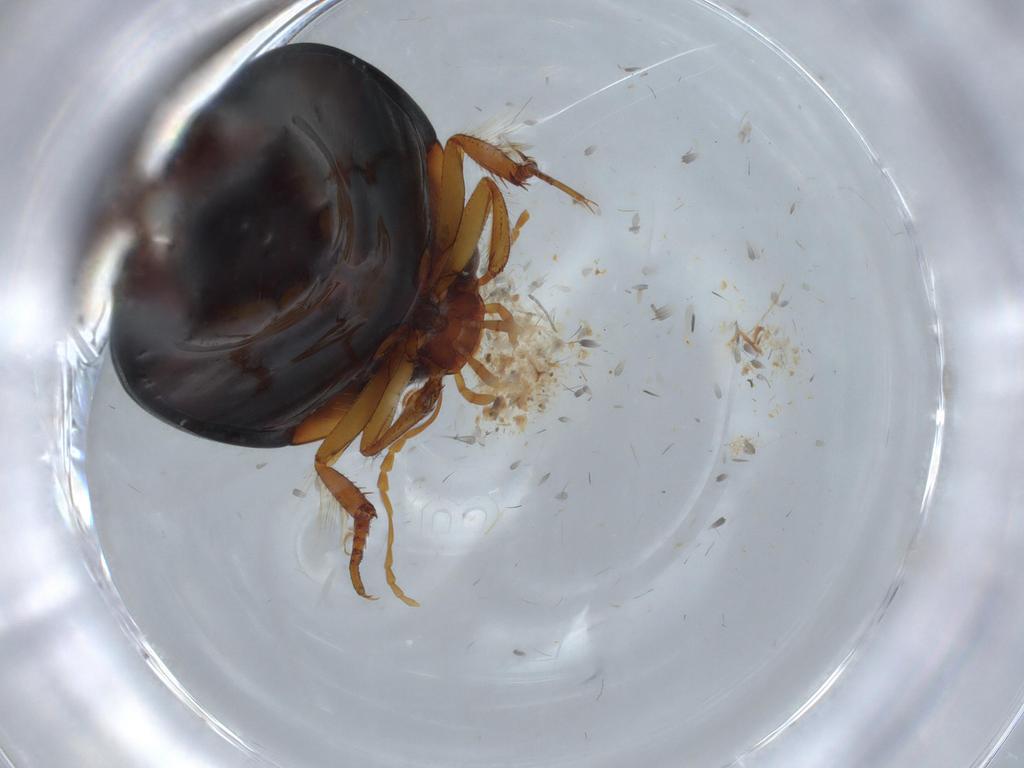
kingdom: Animalia
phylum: Arthropoda
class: Insecta
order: Coleoptera
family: Dytiscidae
